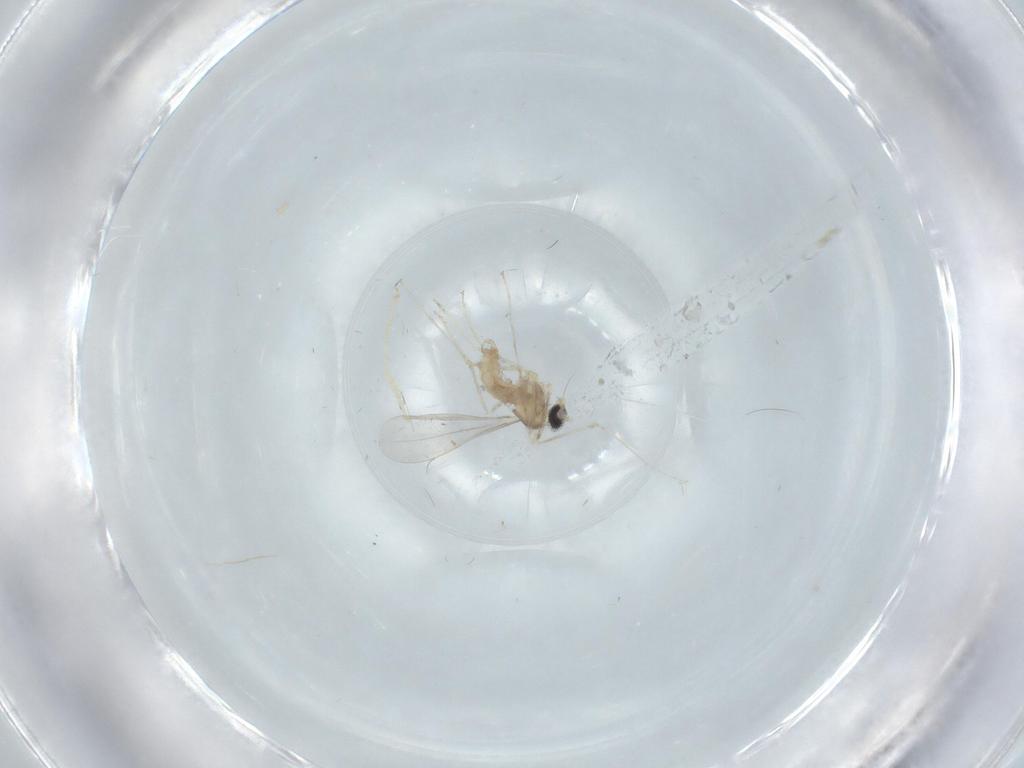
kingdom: Animalia
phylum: Arthropoda
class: Insecta
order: Diptera
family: Cecidomyiidae
